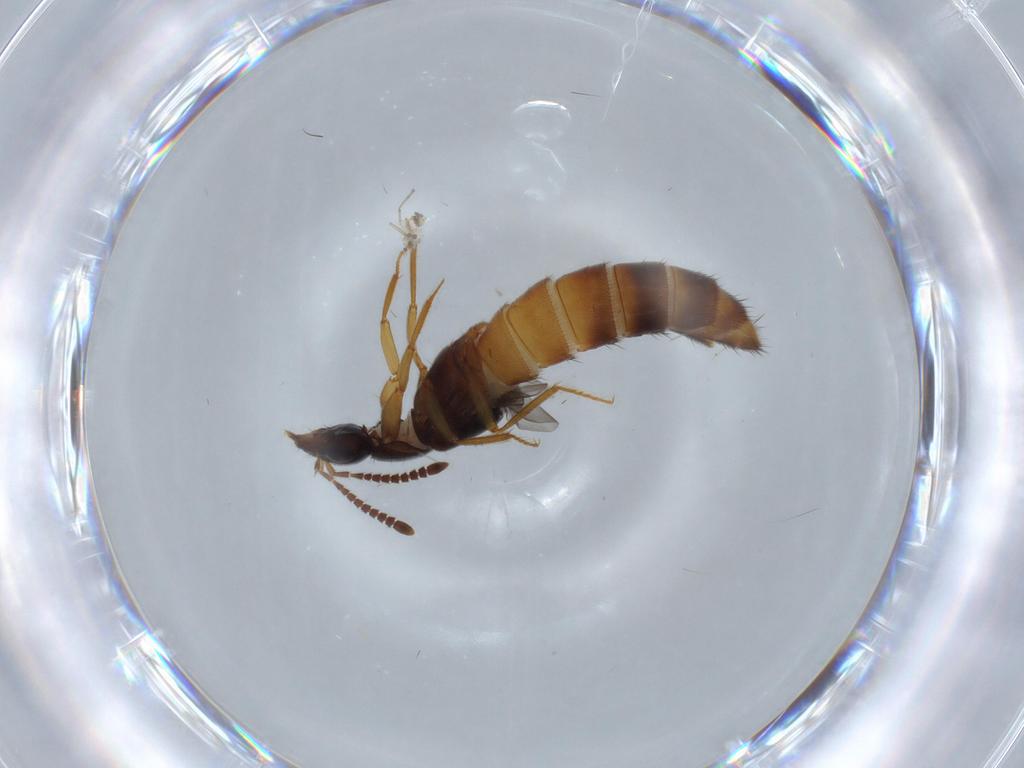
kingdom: Animalia
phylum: Arthropoda
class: Insecta
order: Coleoptera
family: Staphylinidae
